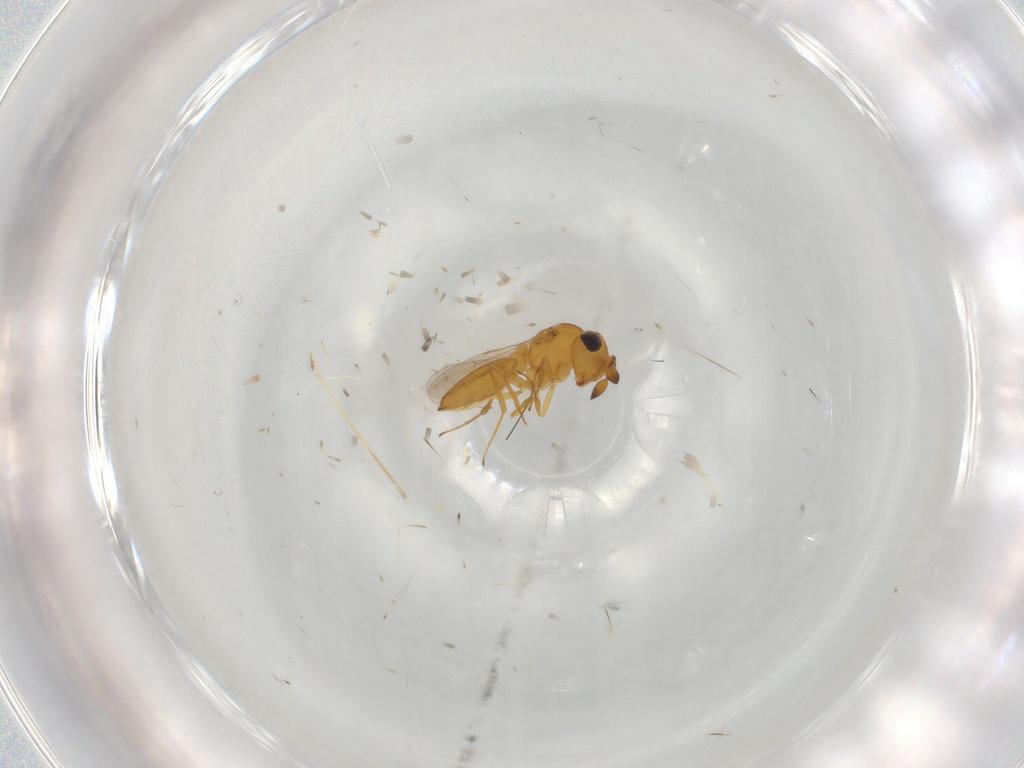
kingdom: Animalia
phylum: Arthropoda
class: Insecta
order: Hymenoptera
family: Scelionidae
